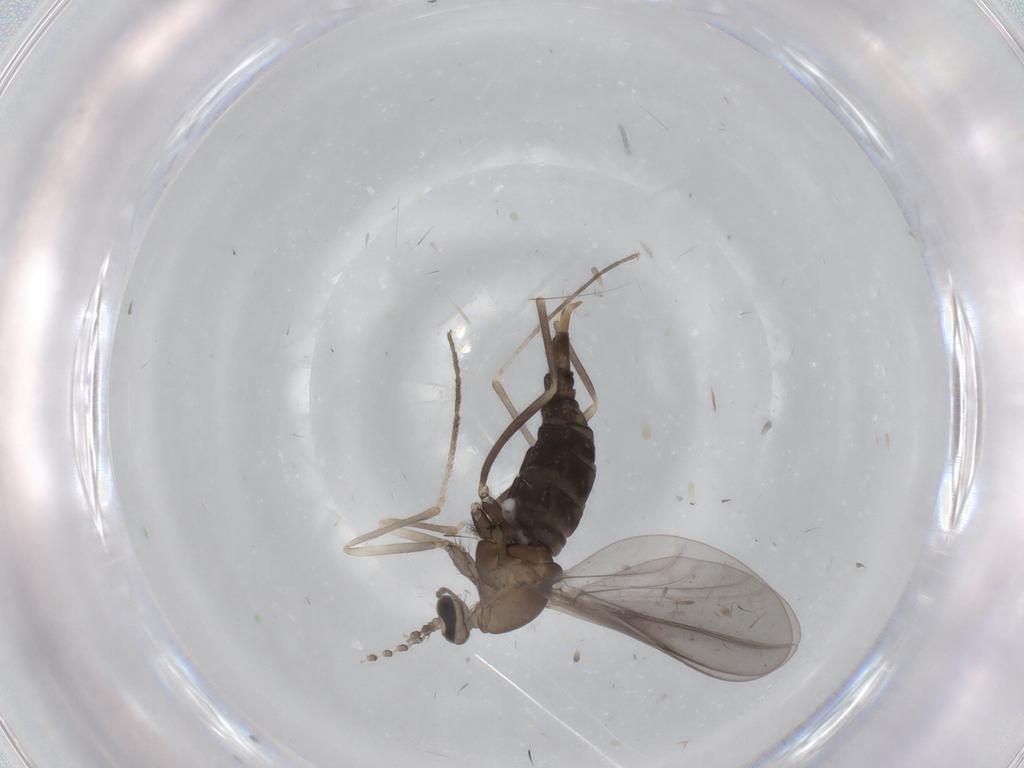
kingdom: Animalia
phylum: Arthropoda
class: Insecta
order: Diptera
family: Cecidomyiidae
